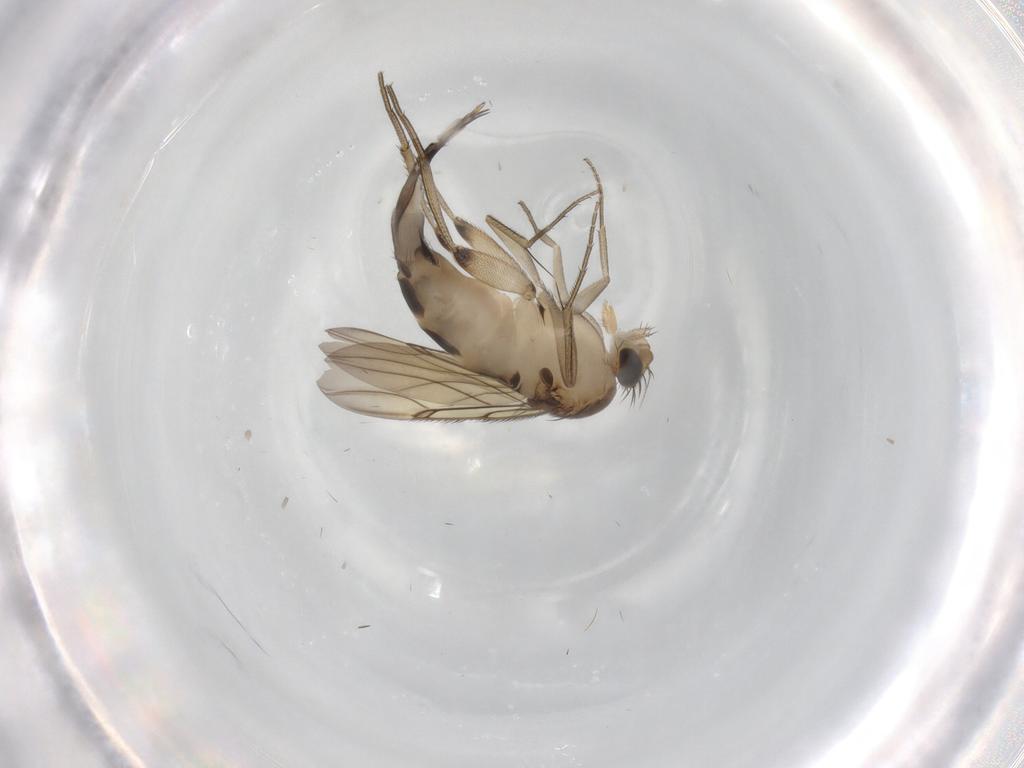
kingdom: Animalia
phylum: Arthropoda
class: Insecta
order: Diptera
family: Phoridae
